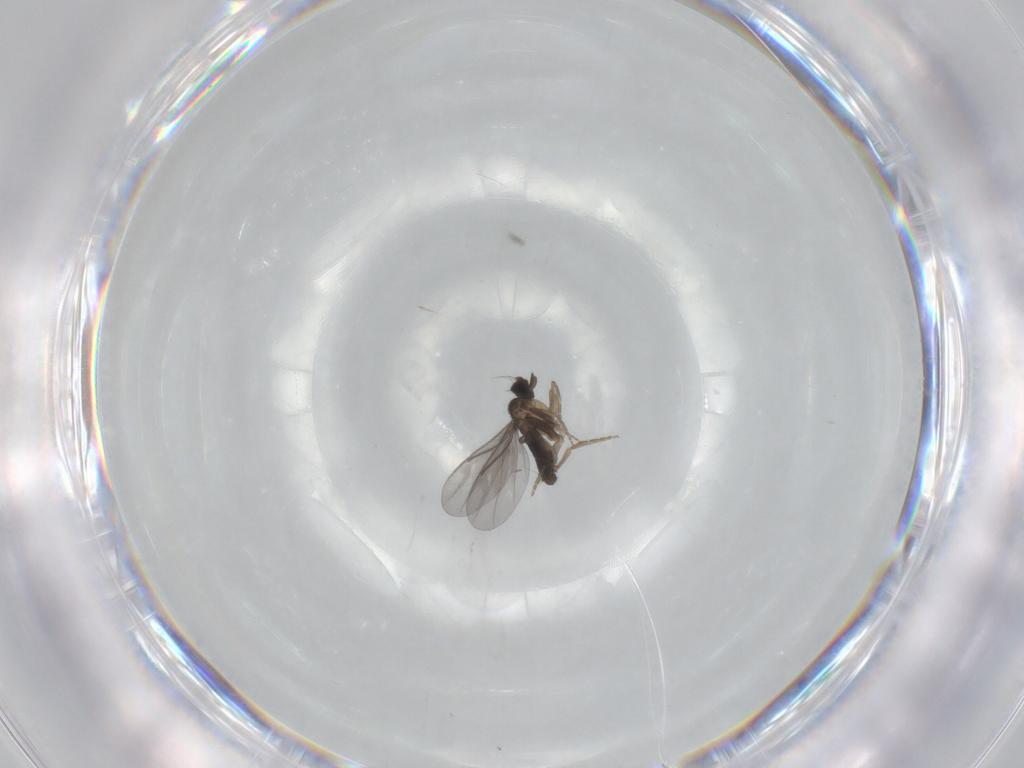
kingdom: Animalia
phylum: Arthropoda
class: Insecta
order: Diptera
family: Limoniidae
